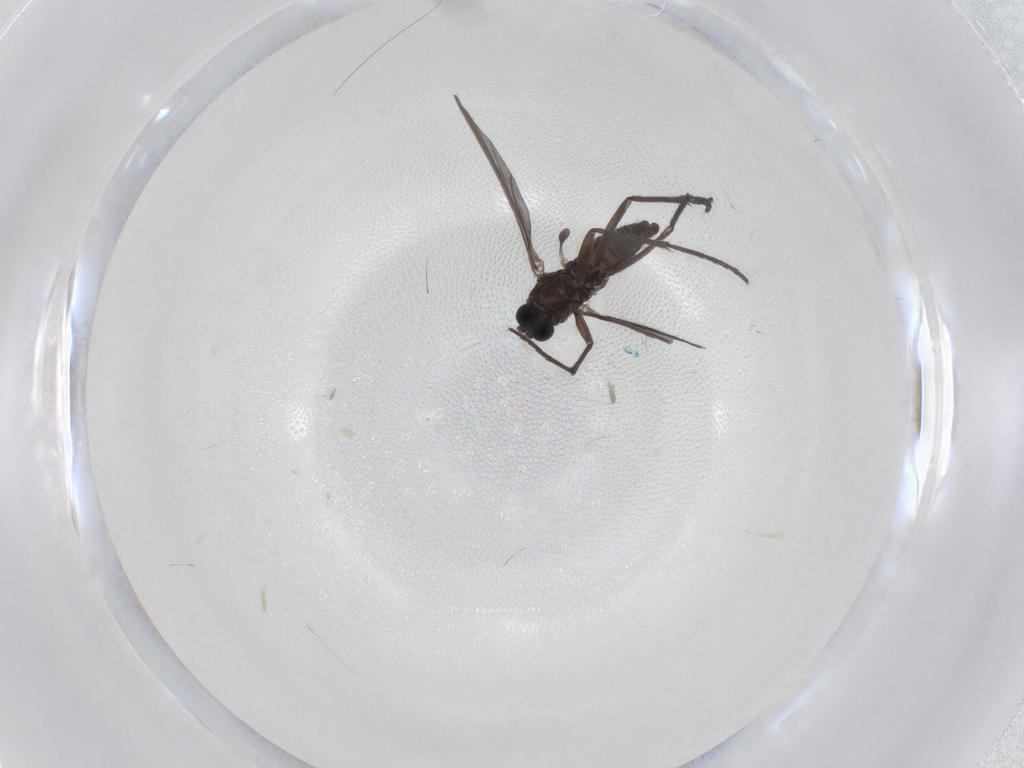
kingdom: Animalia
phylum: Arthropoda
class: Insecta
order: Diptera
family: Sciaridae
